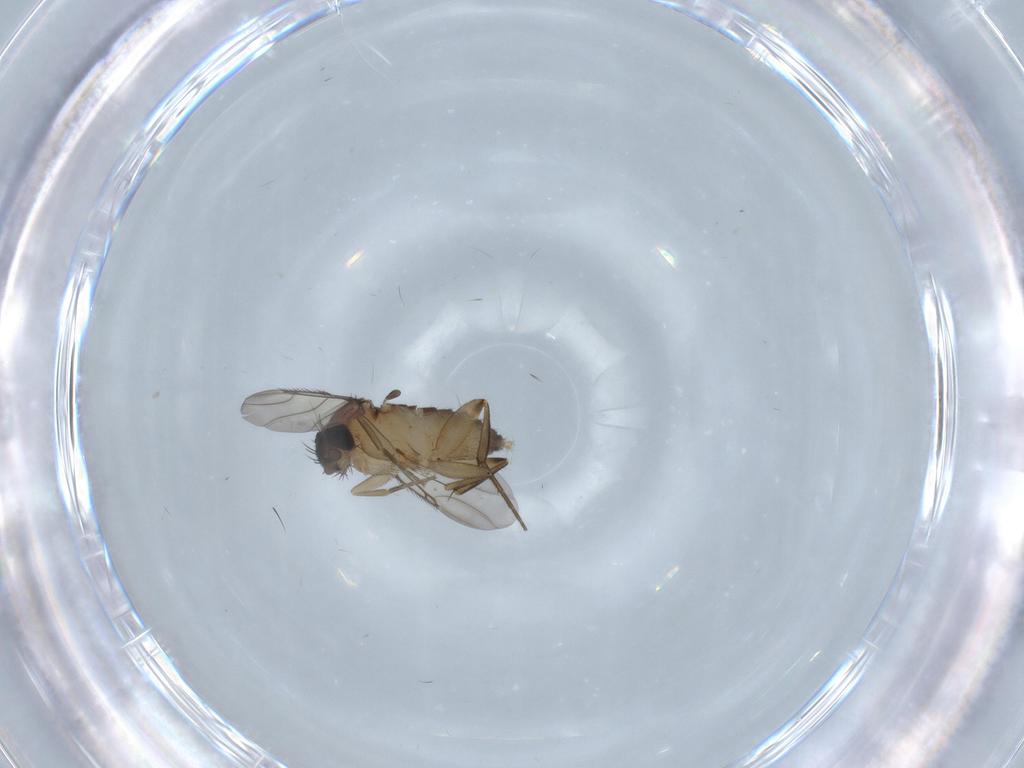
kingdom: Animalia
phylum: Arthropoda
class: Insecta
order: Diptera
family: Phoridae
